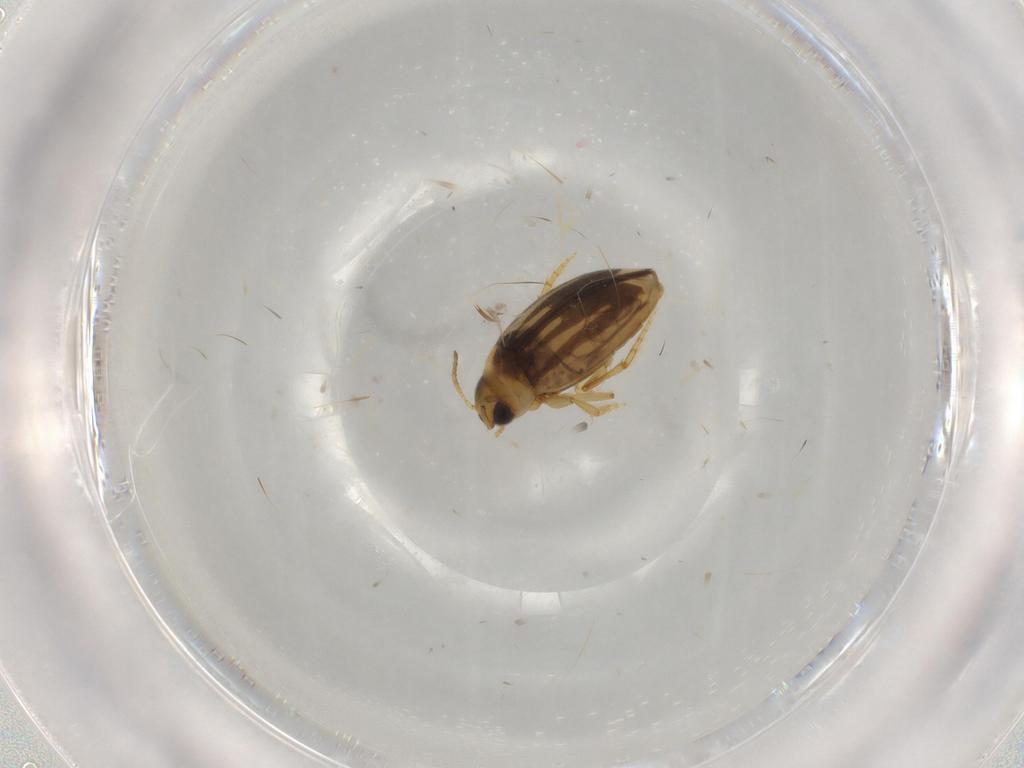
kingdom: Animalia
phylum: Arthropoda
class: Insecta
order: Coleoptera
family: Dytiscidae
